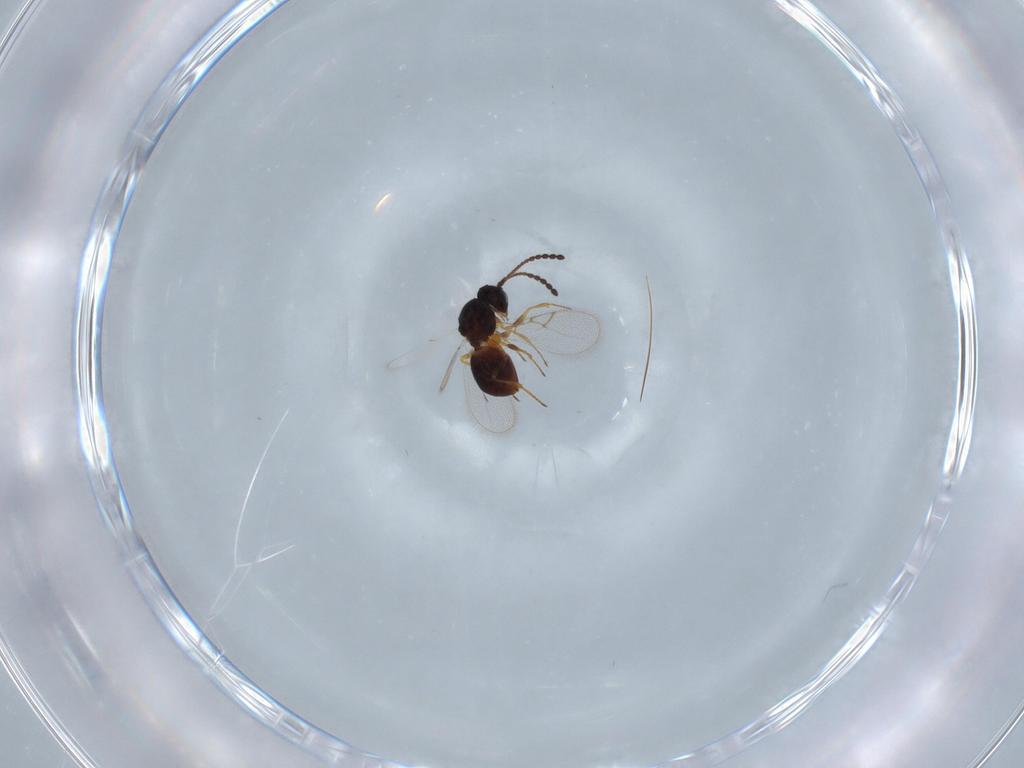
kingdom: Animalia
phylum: Arthropoda
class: Insecta
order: Hymenoptera
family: Figitidae
